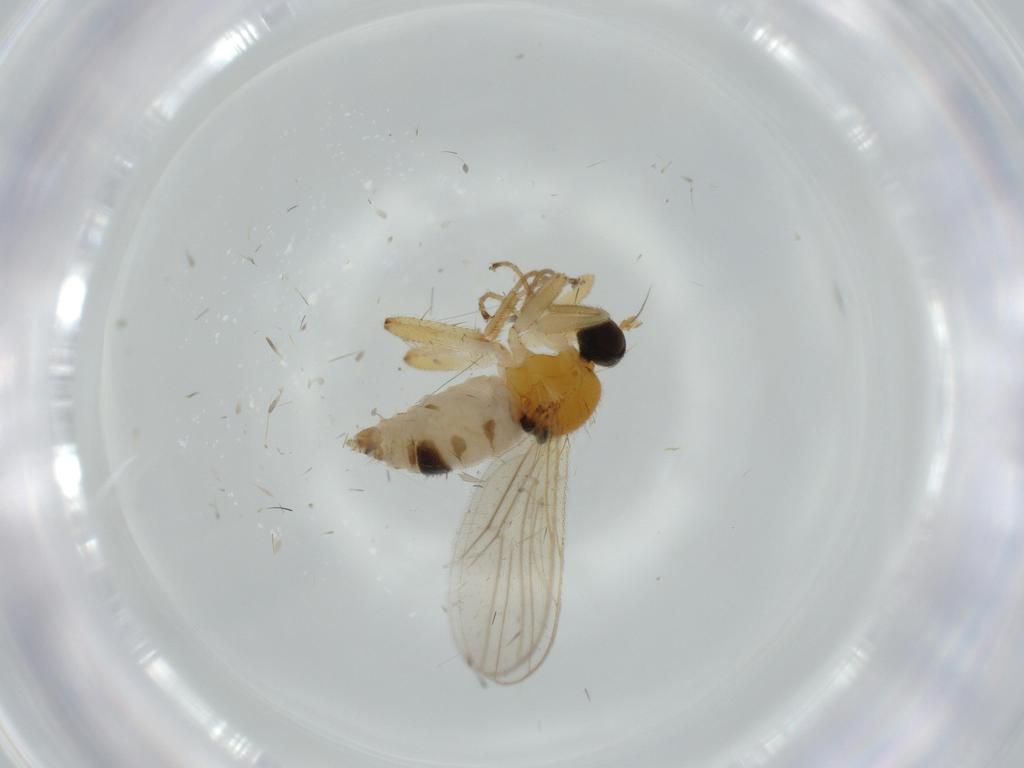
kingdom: Animalia
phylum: Arthropoda
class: Insecta
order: Diptera
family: Hybotidae
